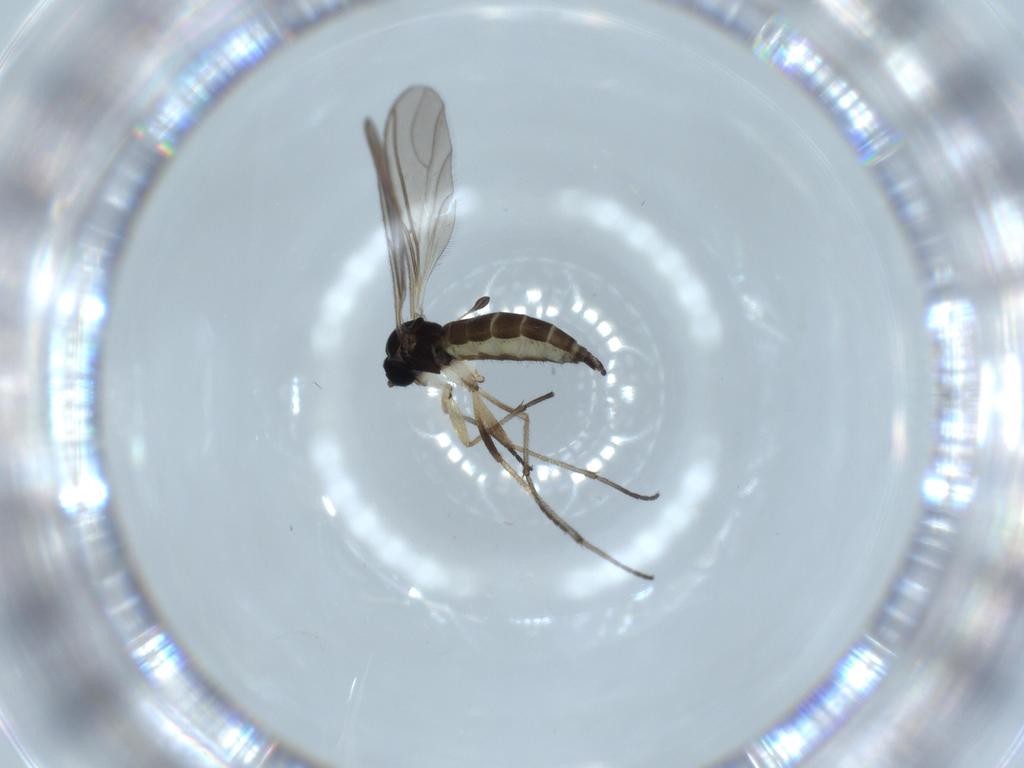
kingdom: Animalia
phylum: Arthropoda
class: Insecta
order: Diptera
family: Sciaridae
